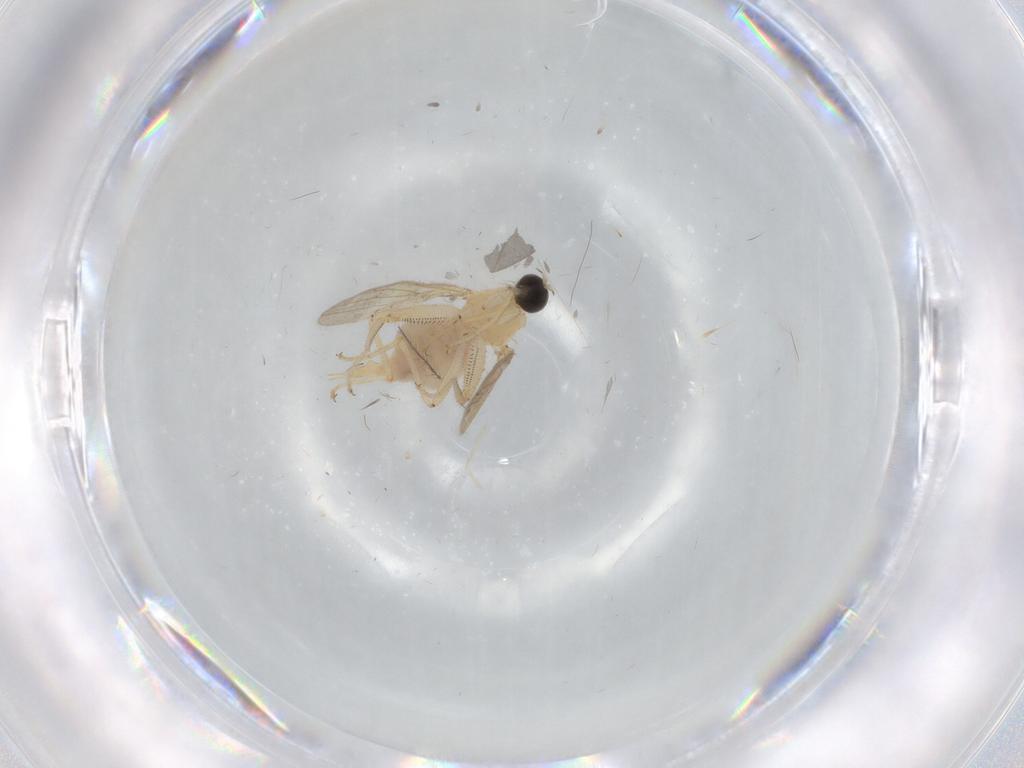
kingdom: Animalia
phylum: Arthropoda
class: Insecta
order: Diptera
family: Cecidomyiidae
